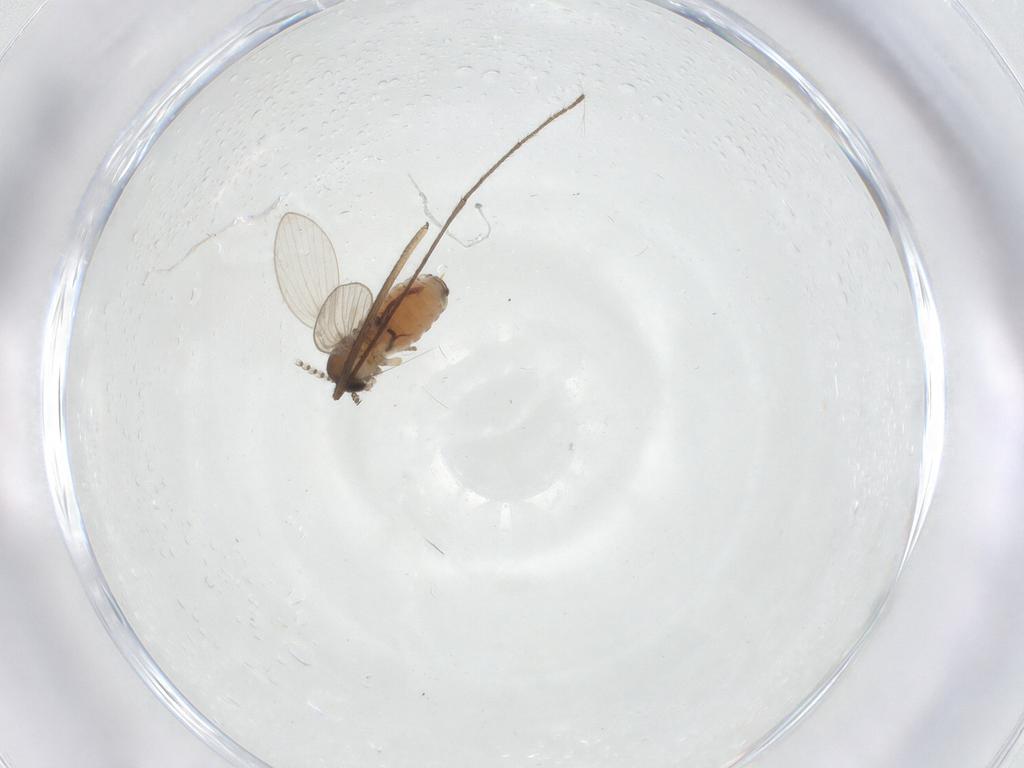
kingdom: Animalia
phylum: Arthropoda
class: Insecta
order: Diptera
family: Psychodidae
